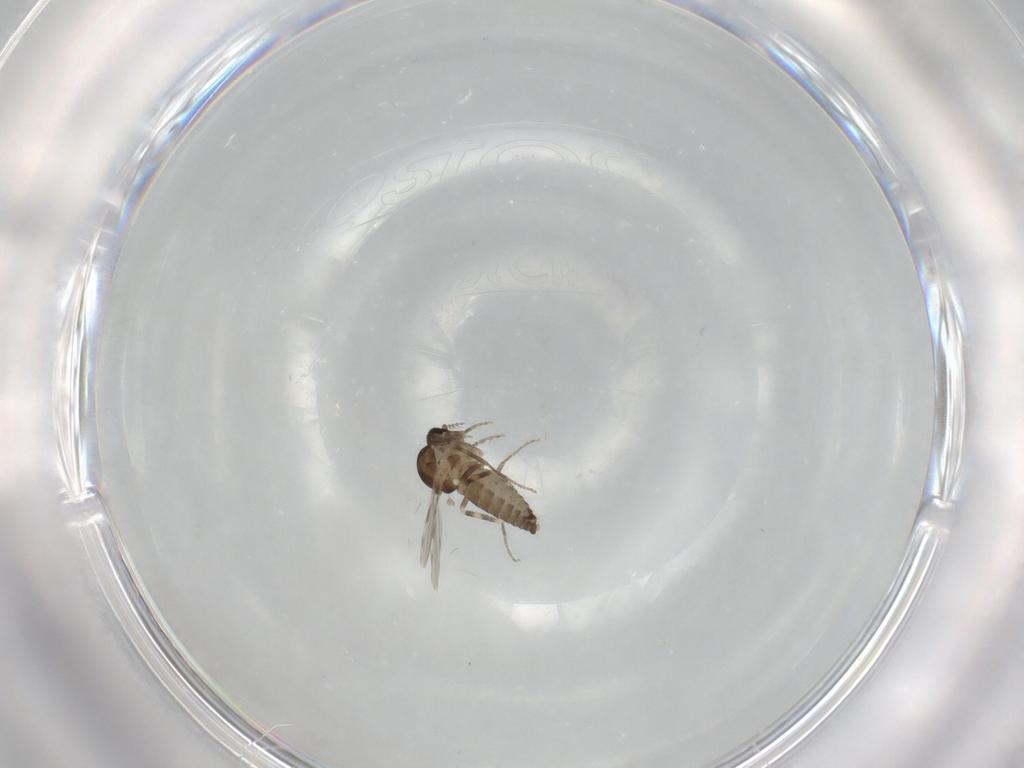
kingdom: Animalia
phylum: Arthropoda
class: Insecta
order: Diptera
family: Ceratopogonidae
